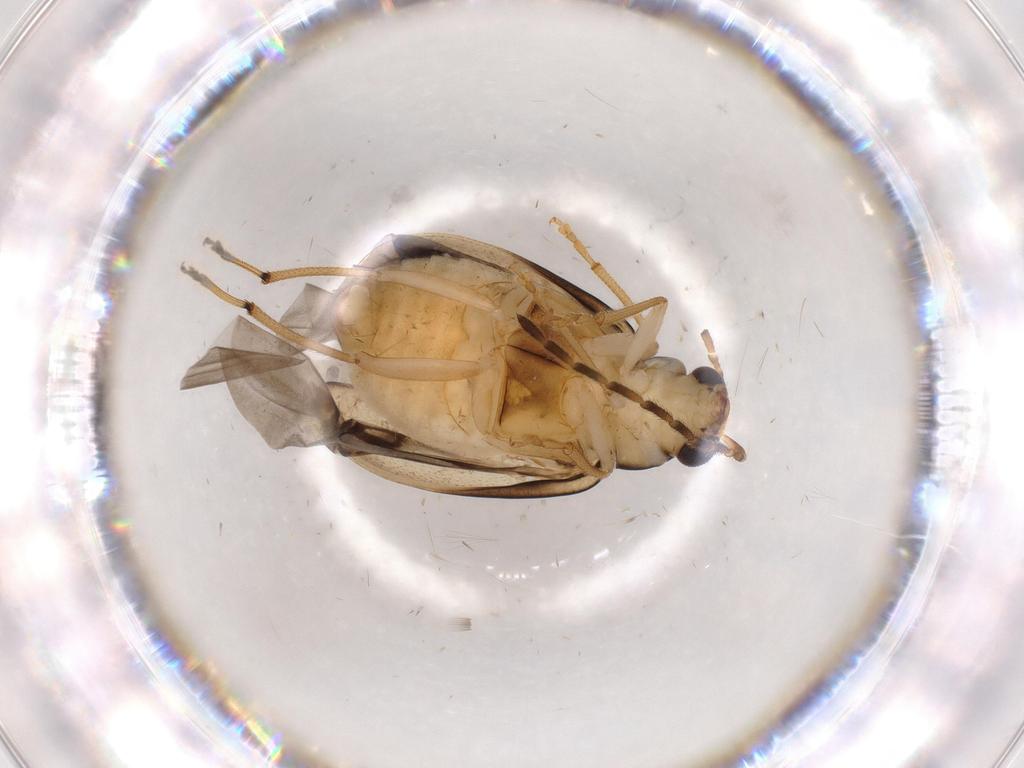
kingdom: Animalia
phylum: Arthropoda
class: Insecta
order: Coleoptera
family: Chrysomelidae
